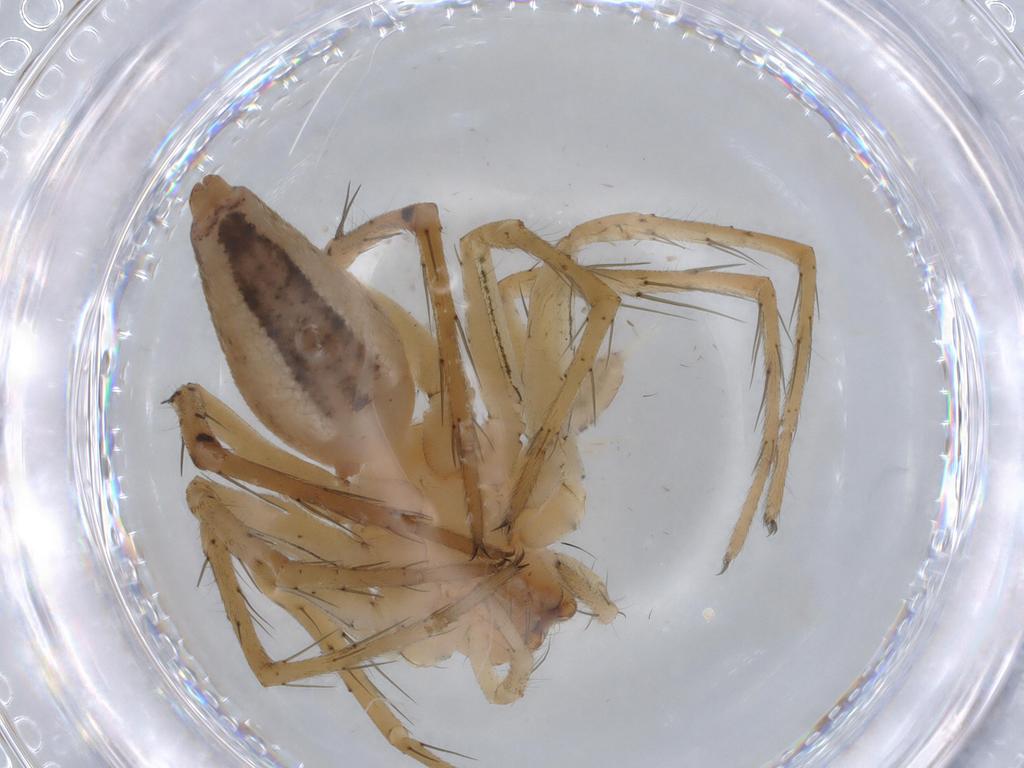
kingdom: Animalia
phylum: Arthropoda
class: Arachnida
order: Araneae
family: Oxyopidae
